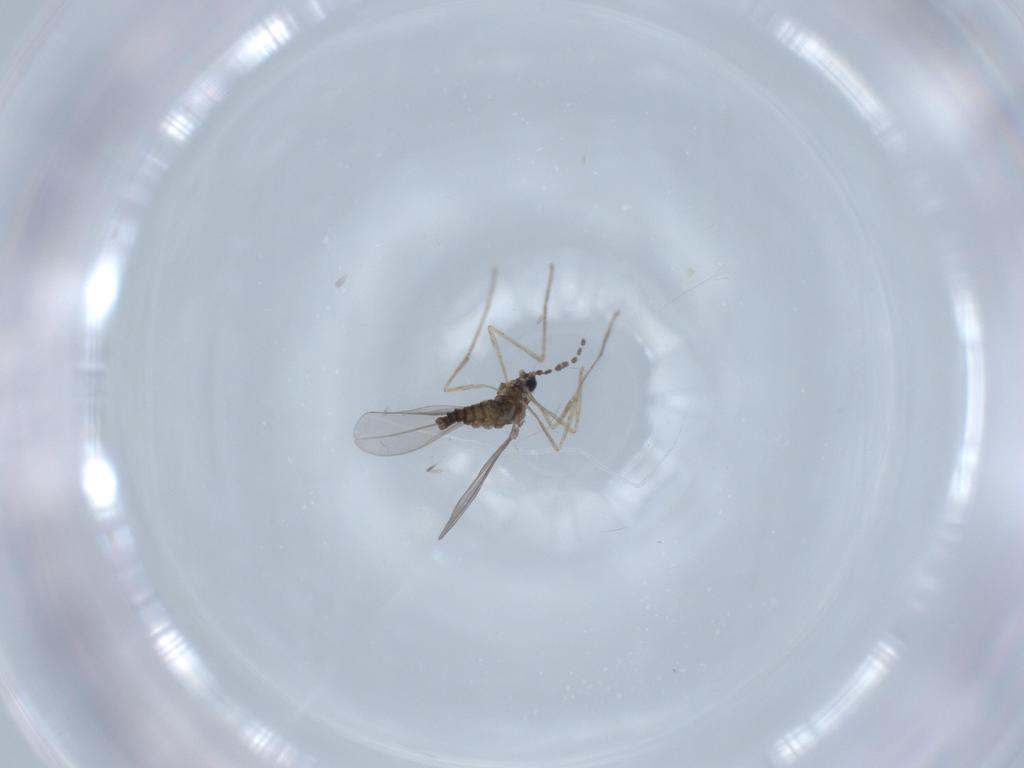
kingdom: Animalia
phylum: Arthropoda
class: Insecta
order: Diptera
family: Cecidomyiidae
